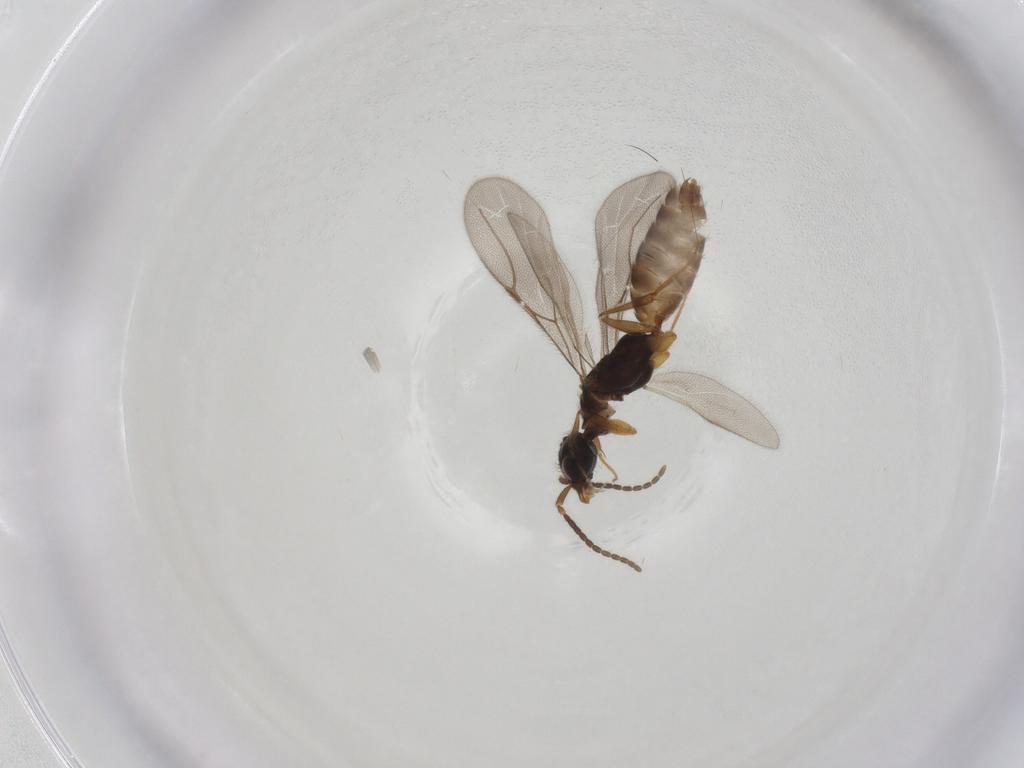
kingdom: Animalia
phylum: Arthropoda
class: Insecta
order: Hymenoptera
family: Bethylidae
